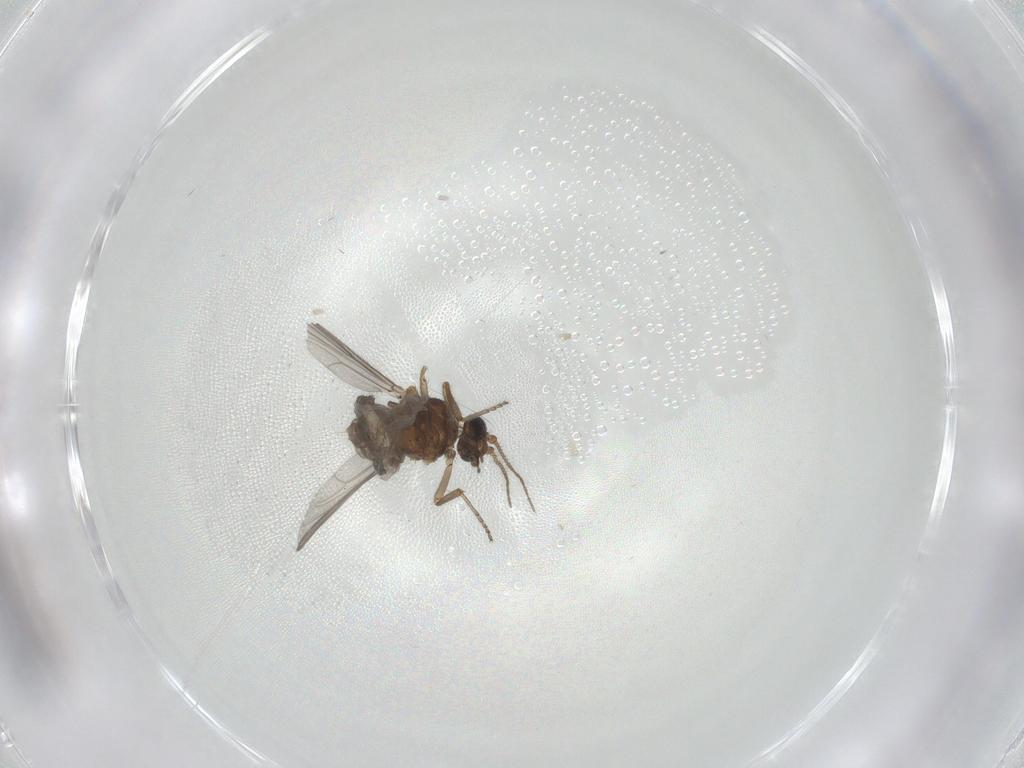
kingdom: Animalia
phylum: Arthropoda
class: Insecta
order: Diptera
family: Ceratopogonidae
